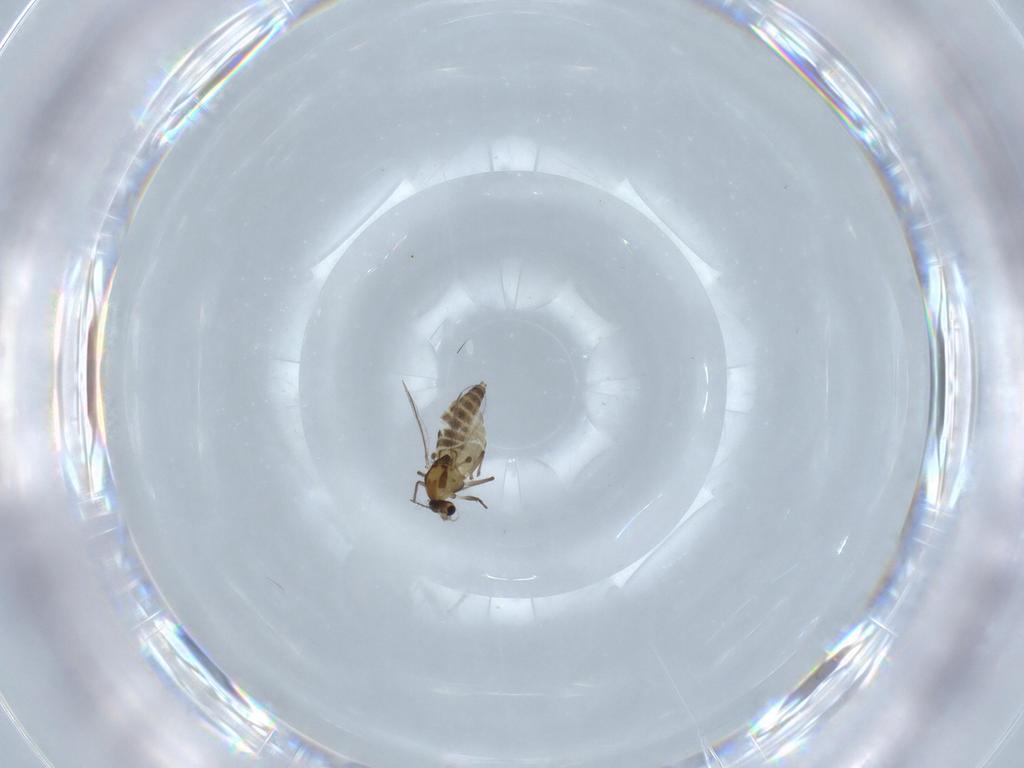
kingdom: Animalia
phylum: Arthropoda
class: Insecta
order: Diptera
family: Chironomidae
